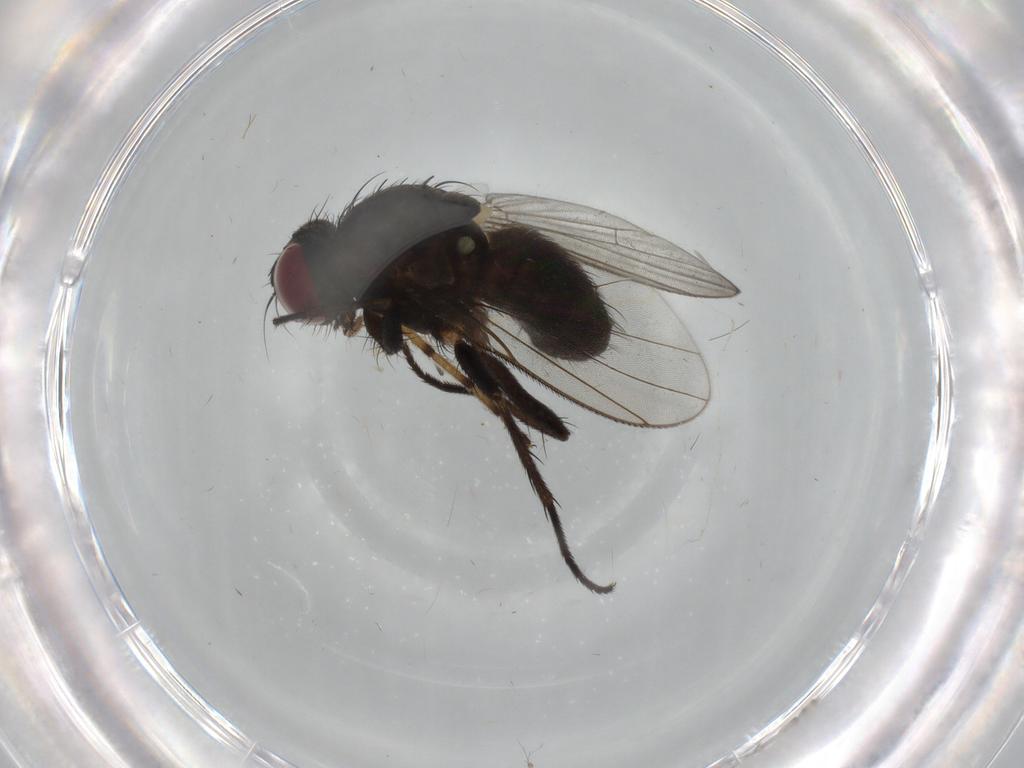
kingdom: Animalia
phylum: Arthropoda
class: Insecta
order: Diptera
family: Muscidae
